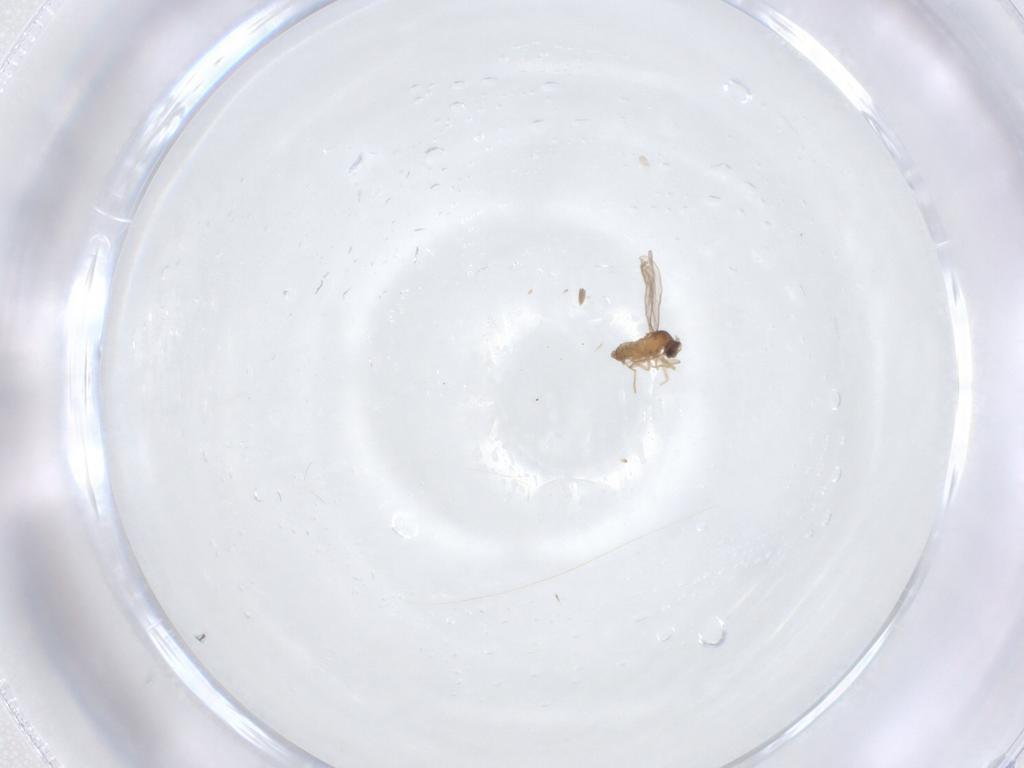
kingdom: Animalia
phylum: Arthropoda
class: Insecta
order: Diptera
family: Cecidomyiidae
